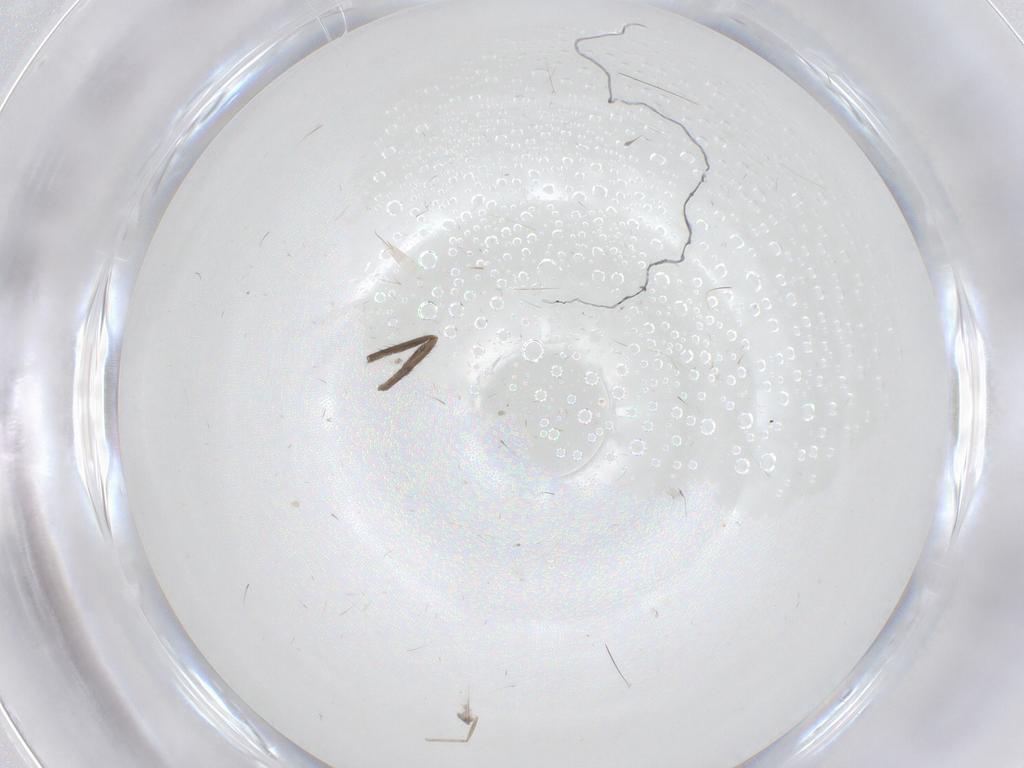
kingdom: Animalia
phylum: Arthropoda
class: Insecta
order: Diptera
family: Chironomidae
